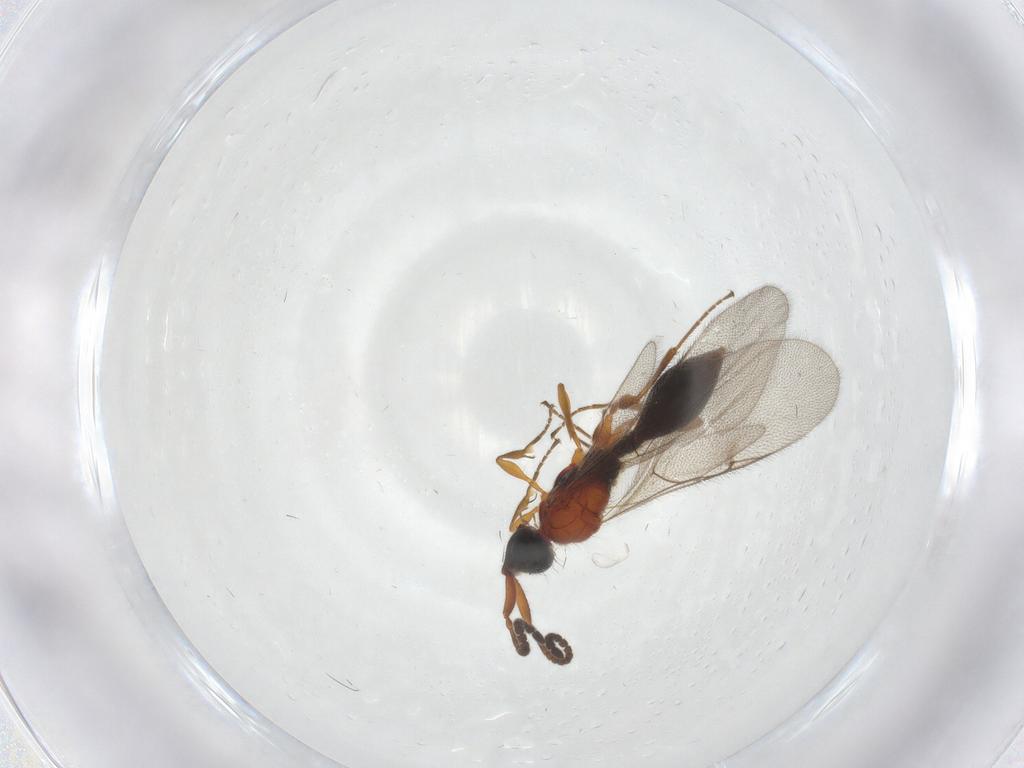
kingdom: Animalia
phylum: Arthropoda
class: Insecta
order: Hymenoptera
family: Diapriidae
